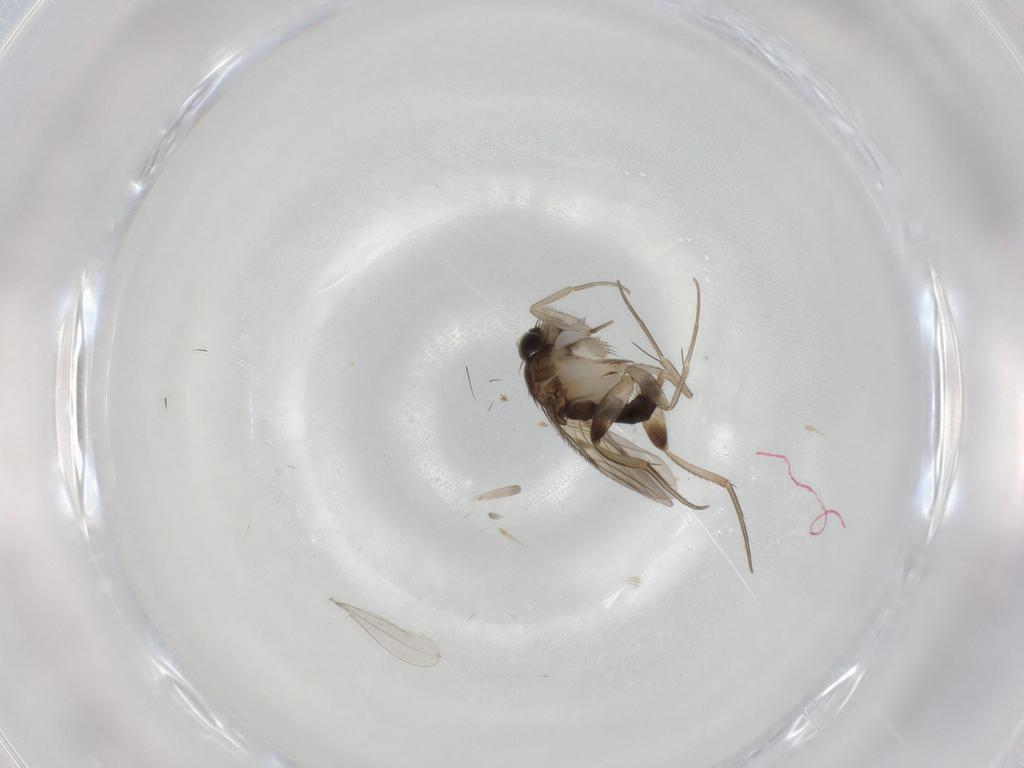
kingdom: Animalia
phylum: Arthropoda
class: Insecta
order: Diptera
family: Phoridae
